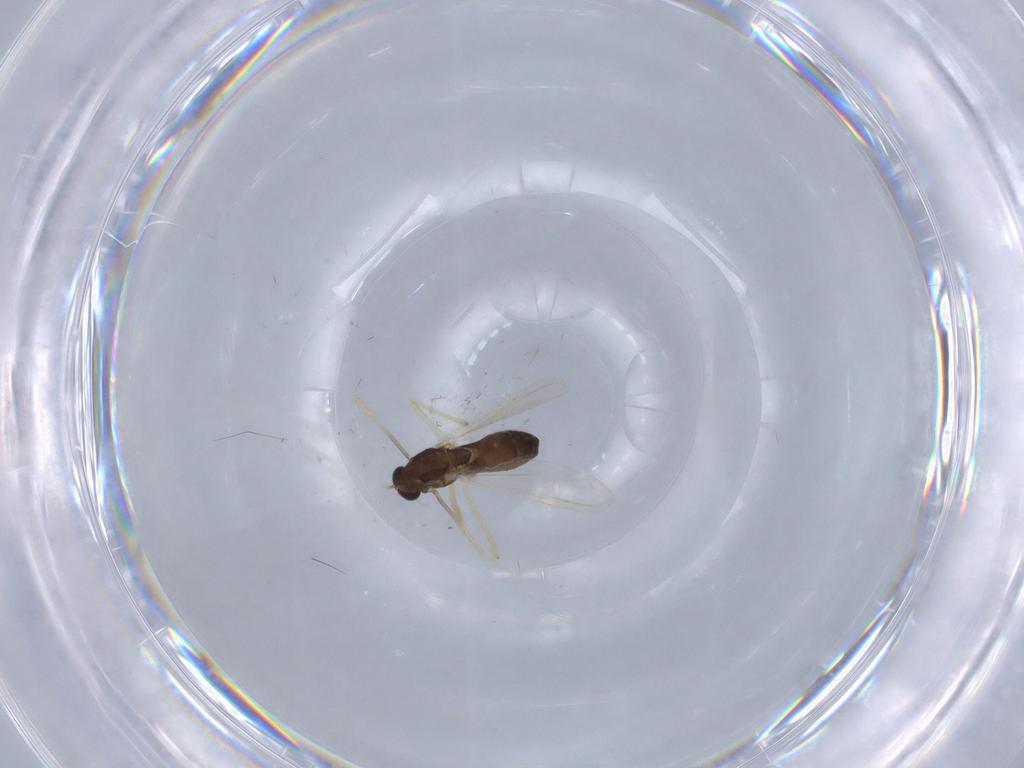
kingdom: Animalia
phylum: Arthropoda
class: Insecta
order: Diptera
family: Chironomidae
